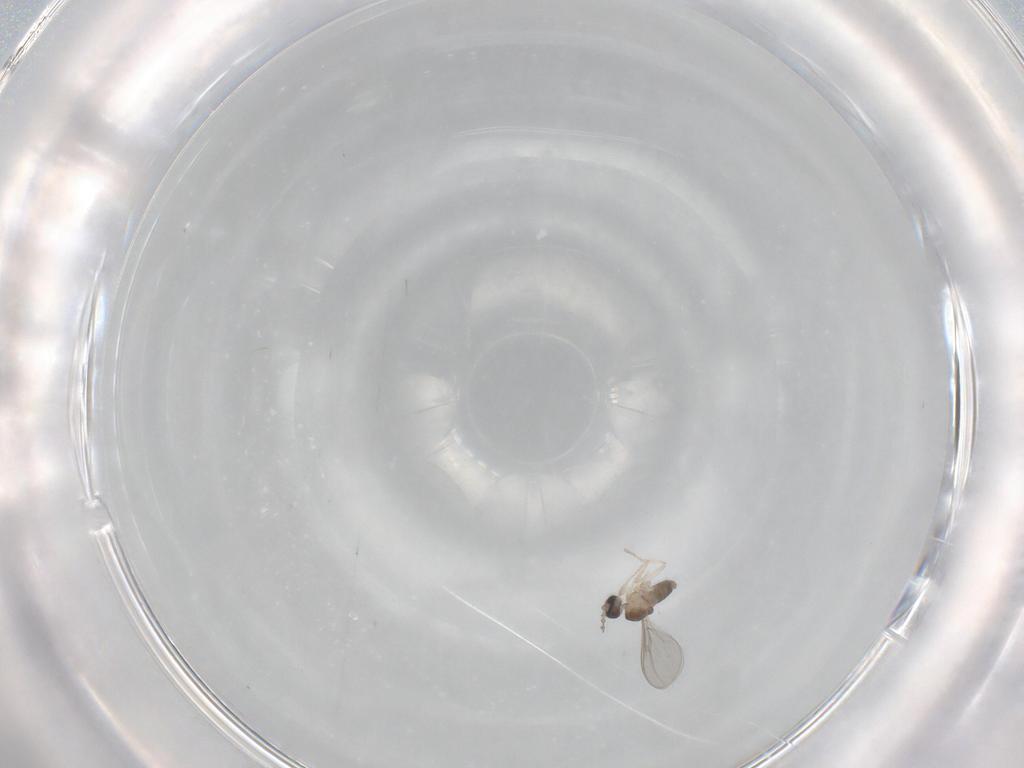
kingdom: Animalia
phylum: Arthropoda
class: Insecta
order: Diptera
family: Cecidomyiidae
